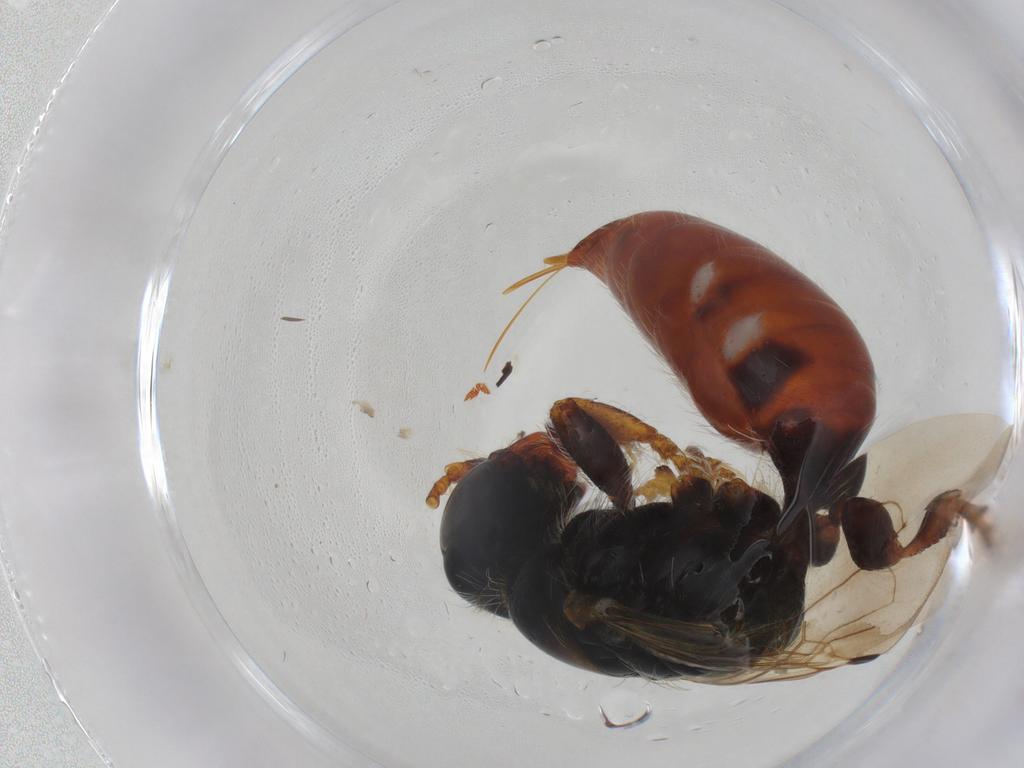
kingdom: Animalia
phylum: Arthropoda
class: Insecta
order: Hymenoptera
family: Thynnidae
